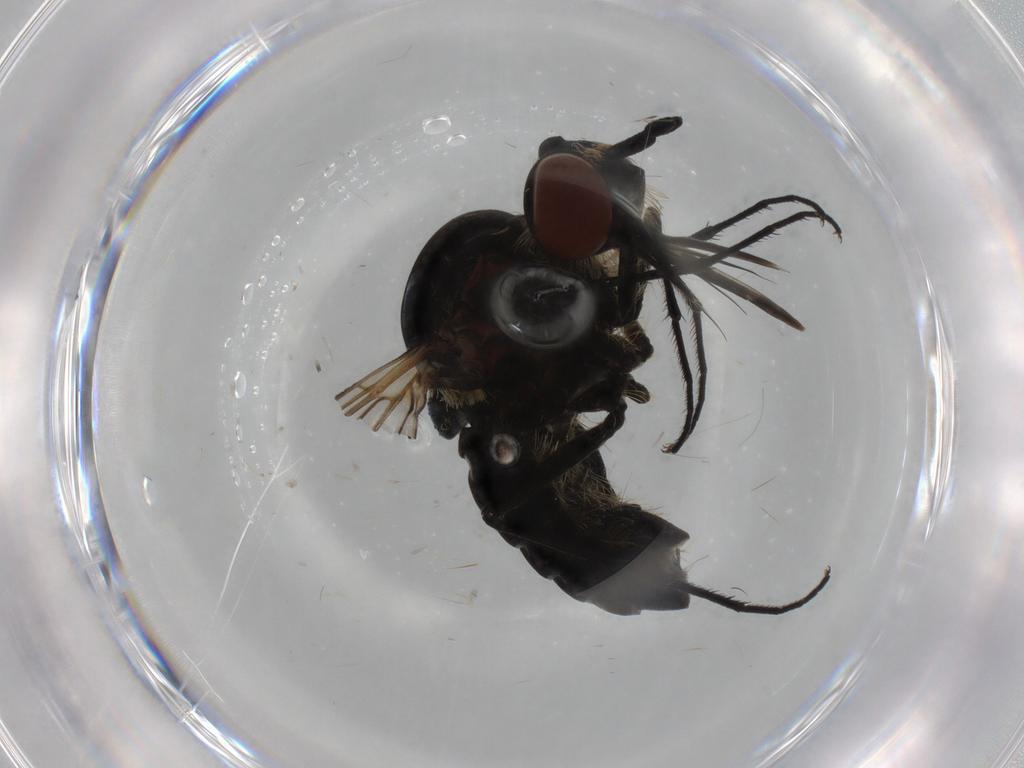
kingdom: Animalia
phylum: Arthropoda
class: Insecta
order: Diptera
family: Bombyliidae
